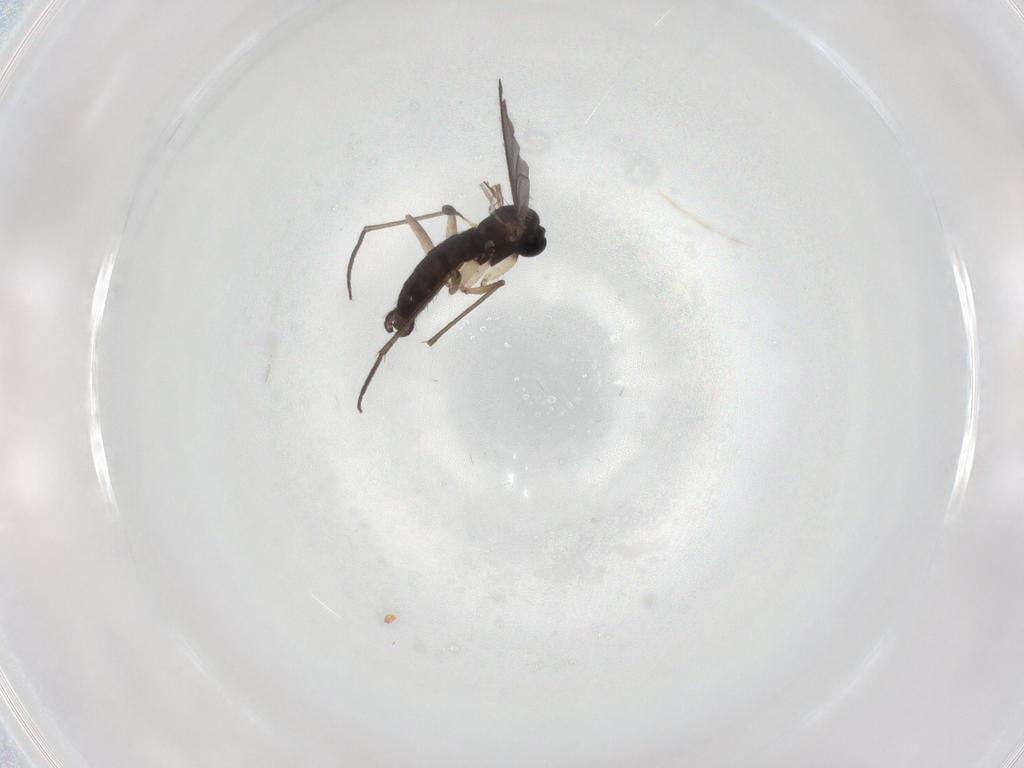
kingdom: Animalia
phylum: Arthropoda
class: Insecta
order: Diptera
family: Sciaridae
